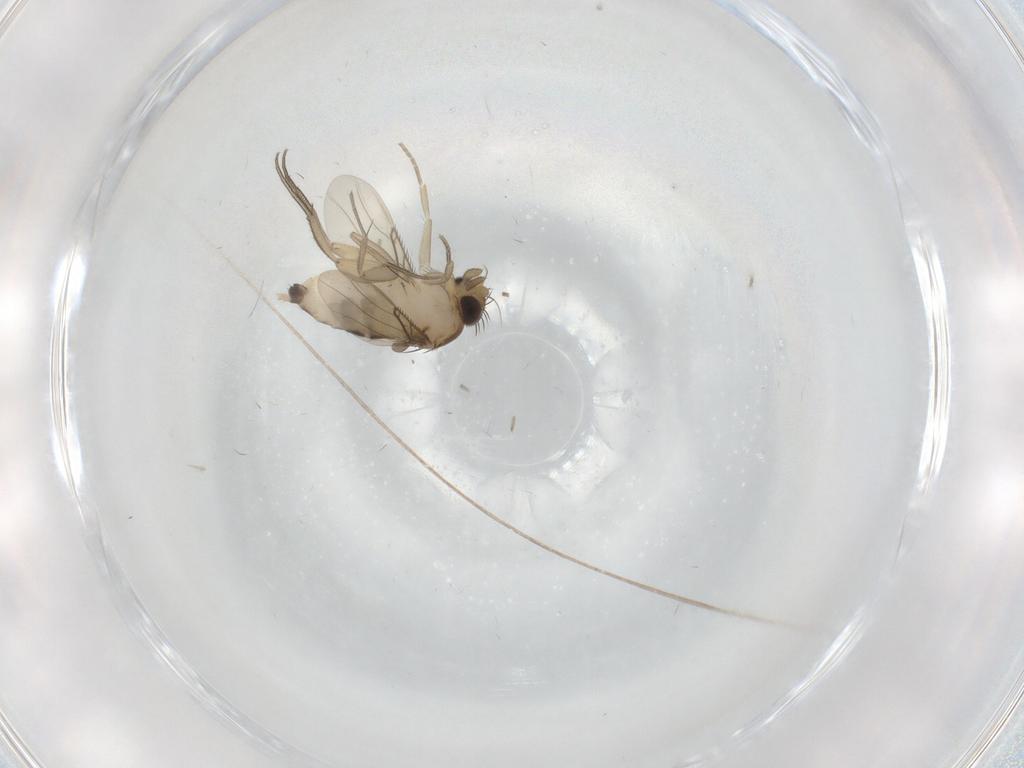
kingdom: Animalia
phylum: Arthropoda
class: Insecta
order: Diptera
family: Phoridae
